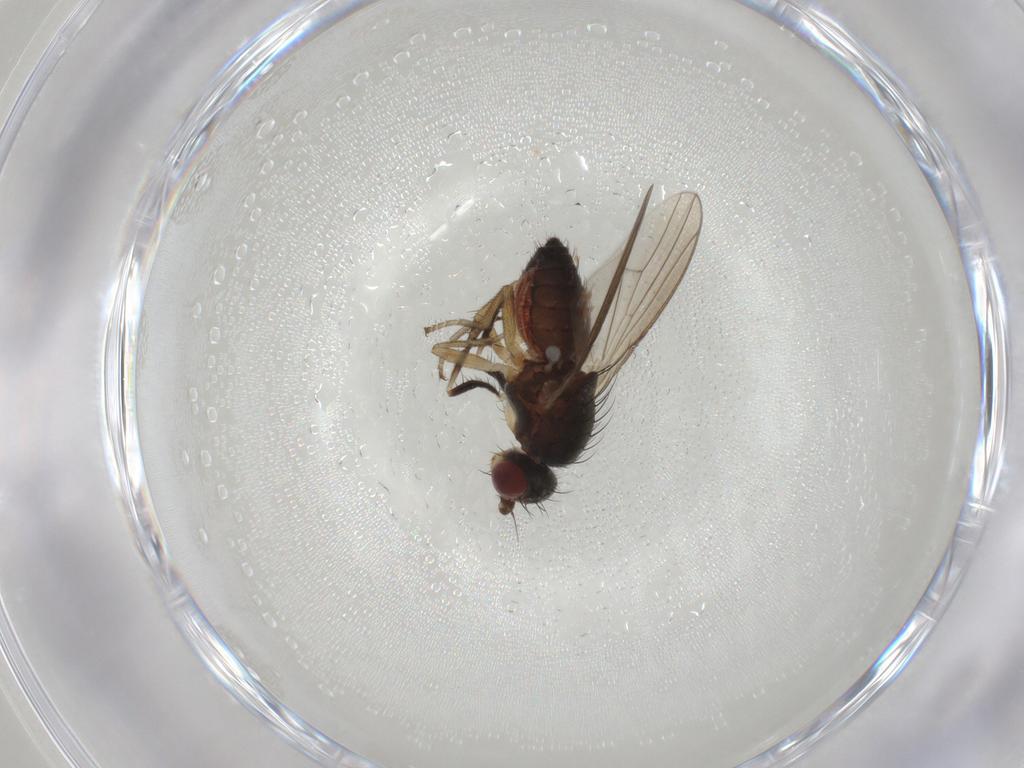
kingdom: Animalia
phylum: Arthropoda
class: Insecta
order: Diptera
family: Heleomyzidae
